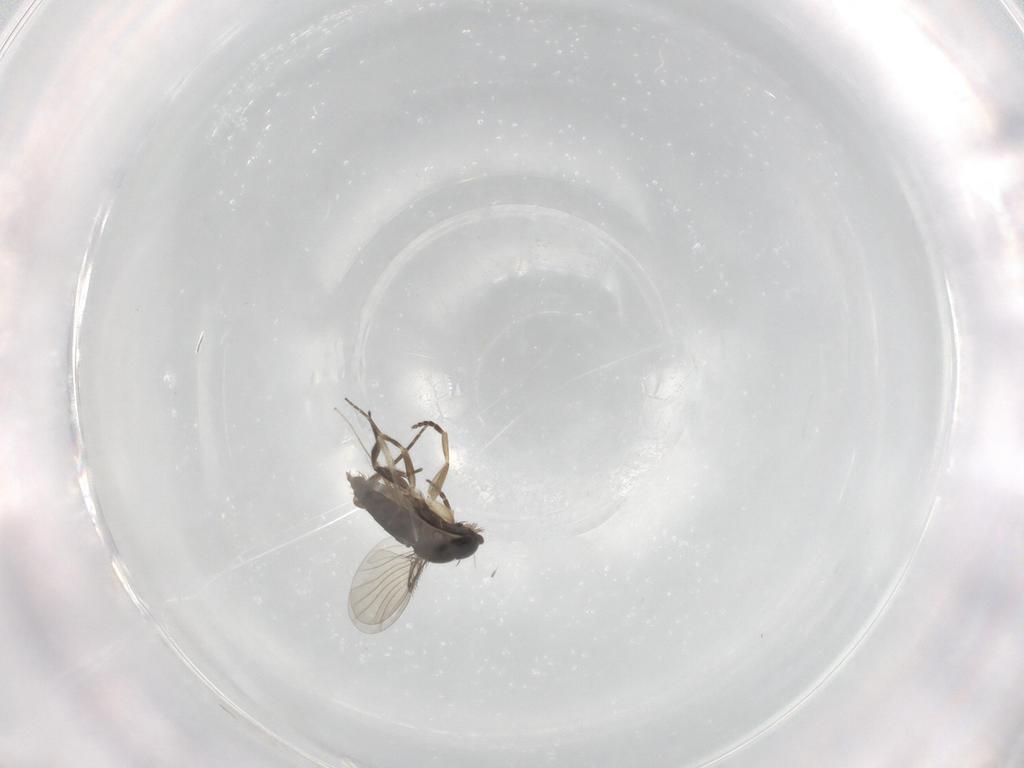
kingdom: Animalia
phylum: Arthropoda
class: Insecta
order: Diptera
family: Phoridae
